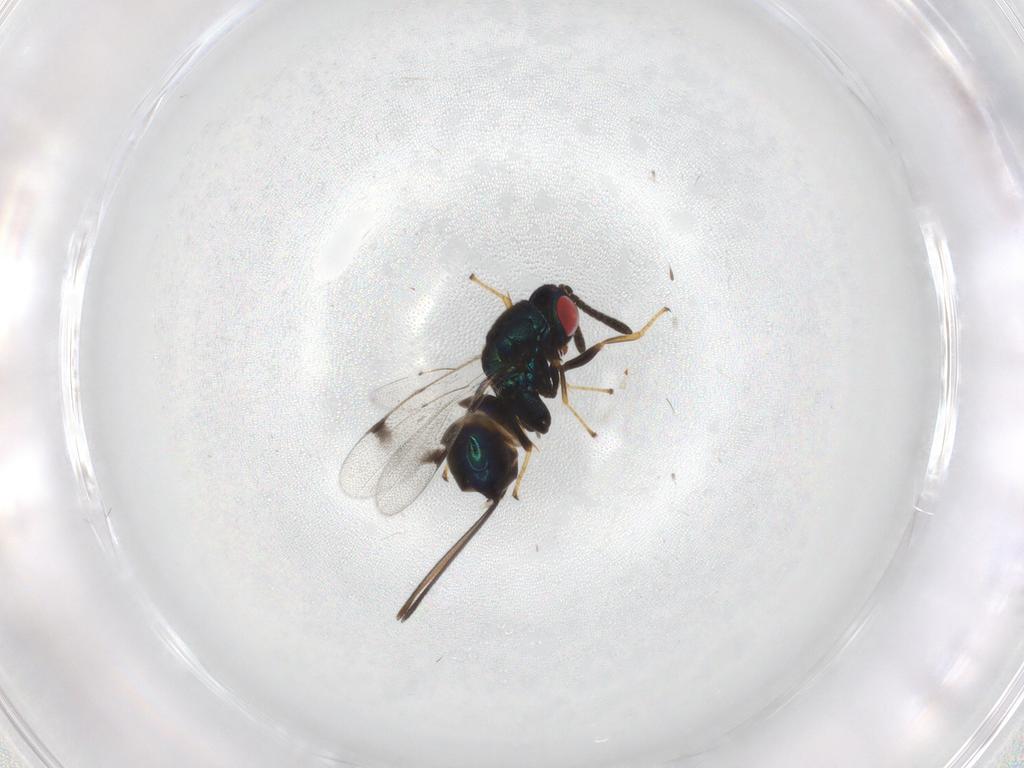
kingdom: Animalia
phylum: Arthropoda
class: Insecta
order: Hymenoptera
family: Torymidae
